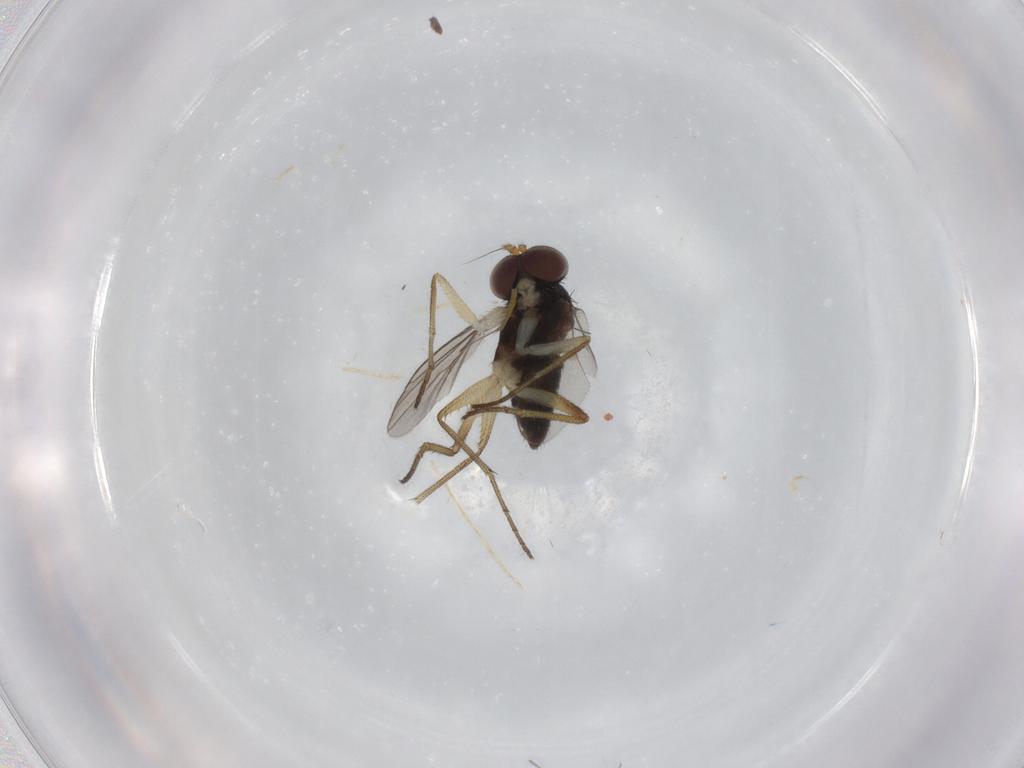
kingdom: Animalia
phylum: Arthropoda
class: Insecta
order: Diptera
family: Dolichopodidae
